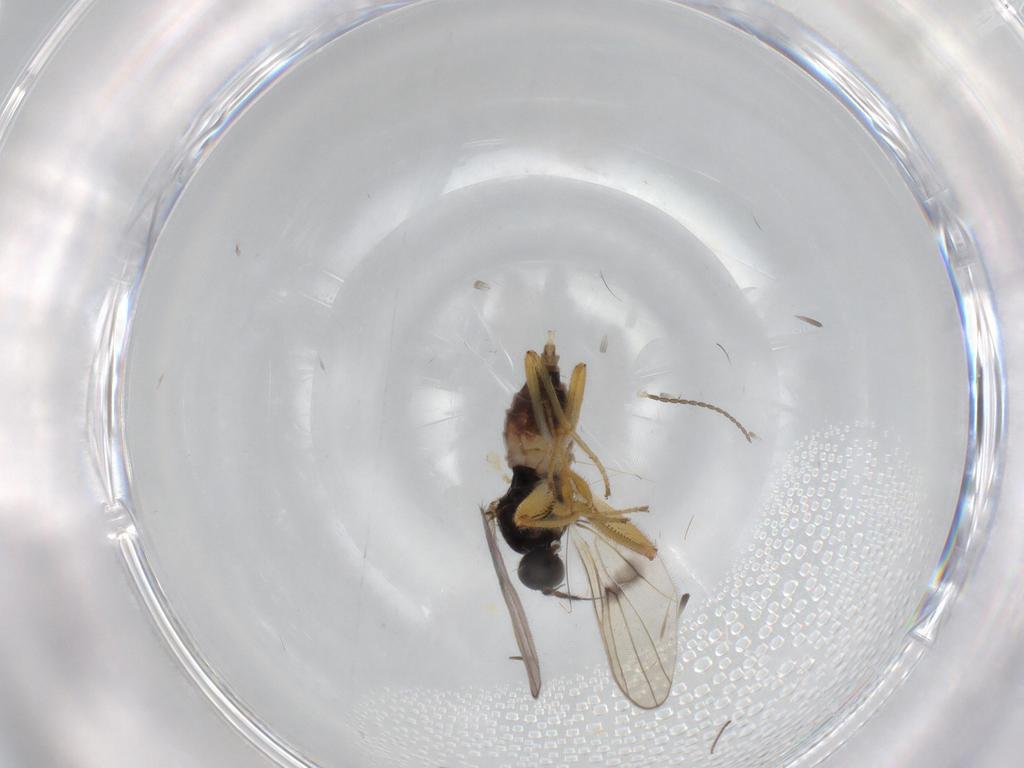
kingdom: Animalia
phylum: Arthropoda
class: Insecta
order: Diptera
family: Hybotidae
